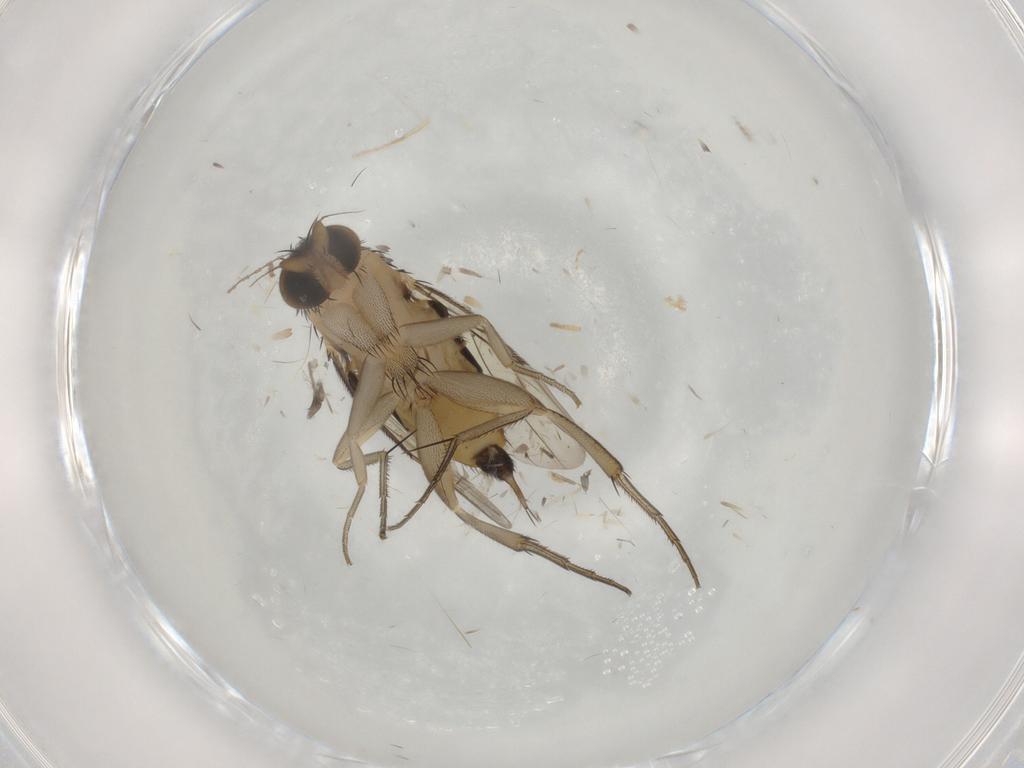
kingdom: Animalia
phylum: Arthropoda
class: Insecta
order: Diptera
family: Phoridae
